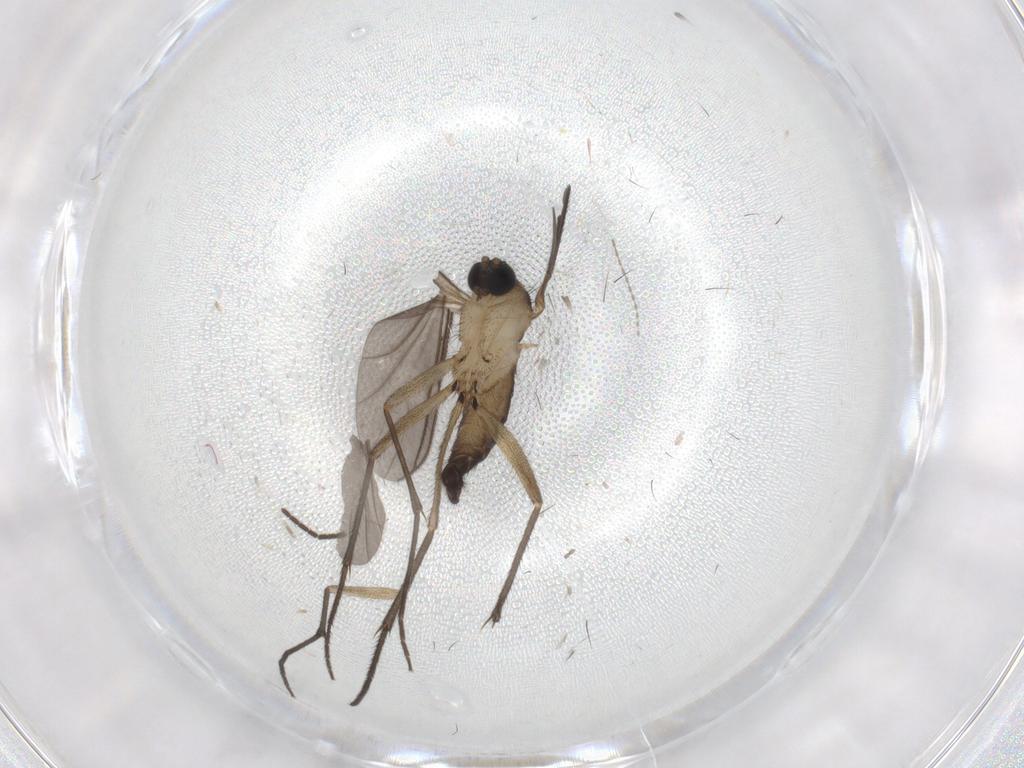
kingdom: Animalia
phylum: Arthropoda
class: Insecta
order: Diptera
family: Sciaridae
